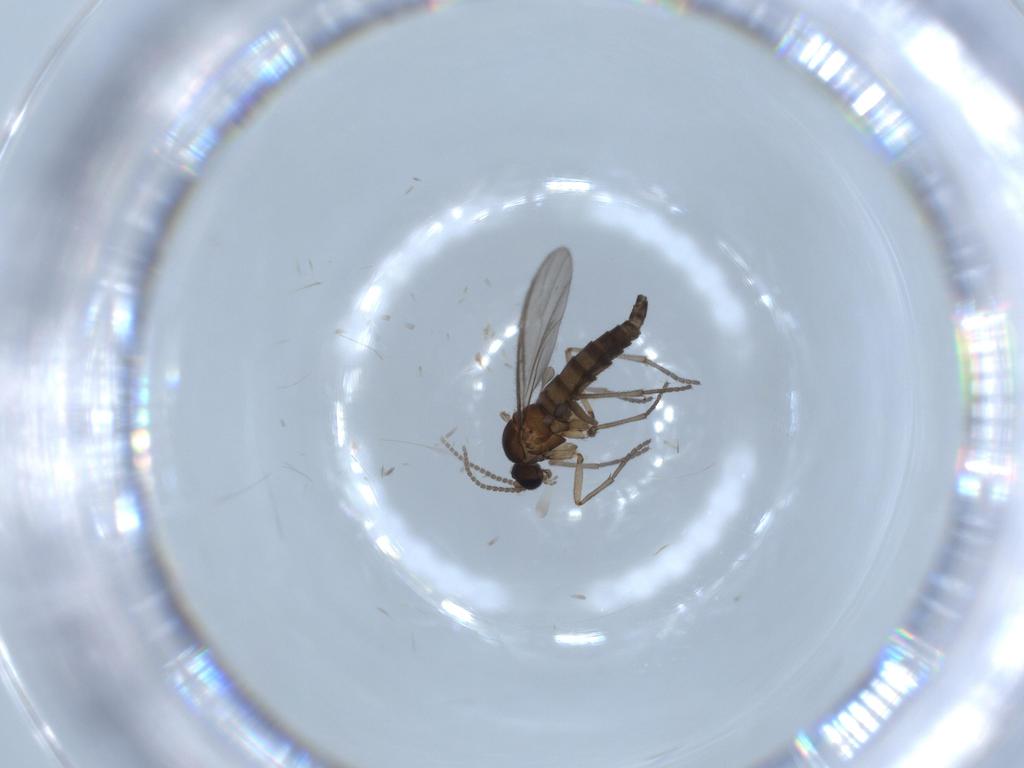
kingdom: Animalia
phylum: Arthropoda
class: Insecta
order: Diptera
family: Sciaridae
